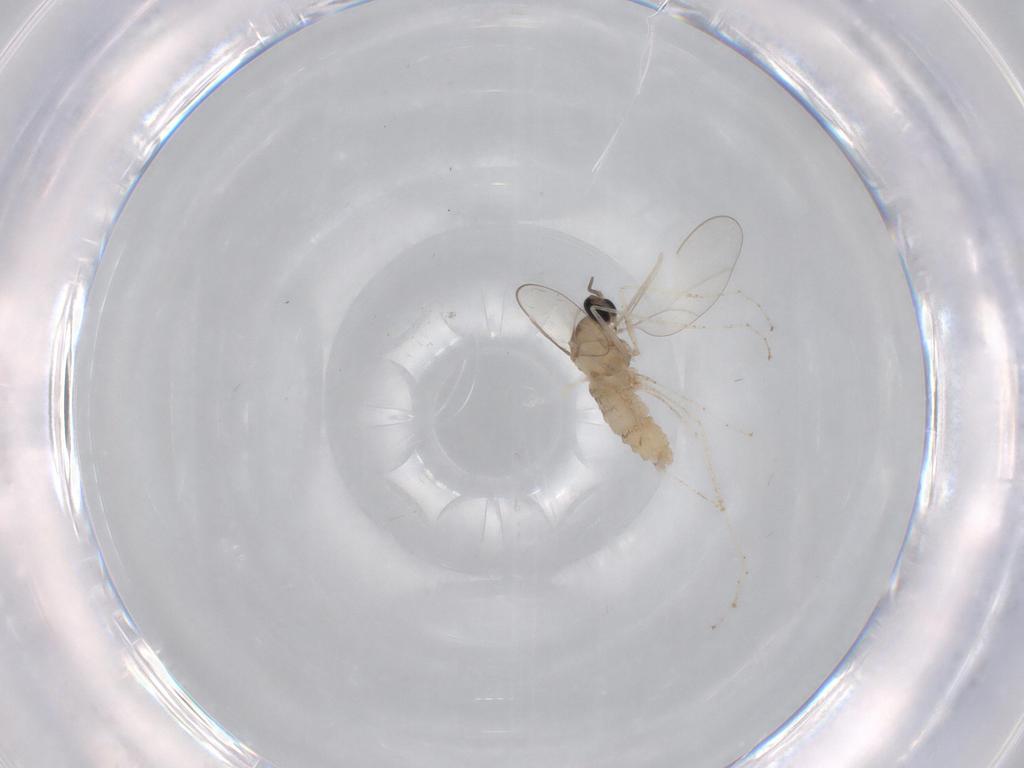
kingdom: Animalia
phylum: Arthropoda
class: Insecta
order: Diptera
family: Cecidomyiidae
